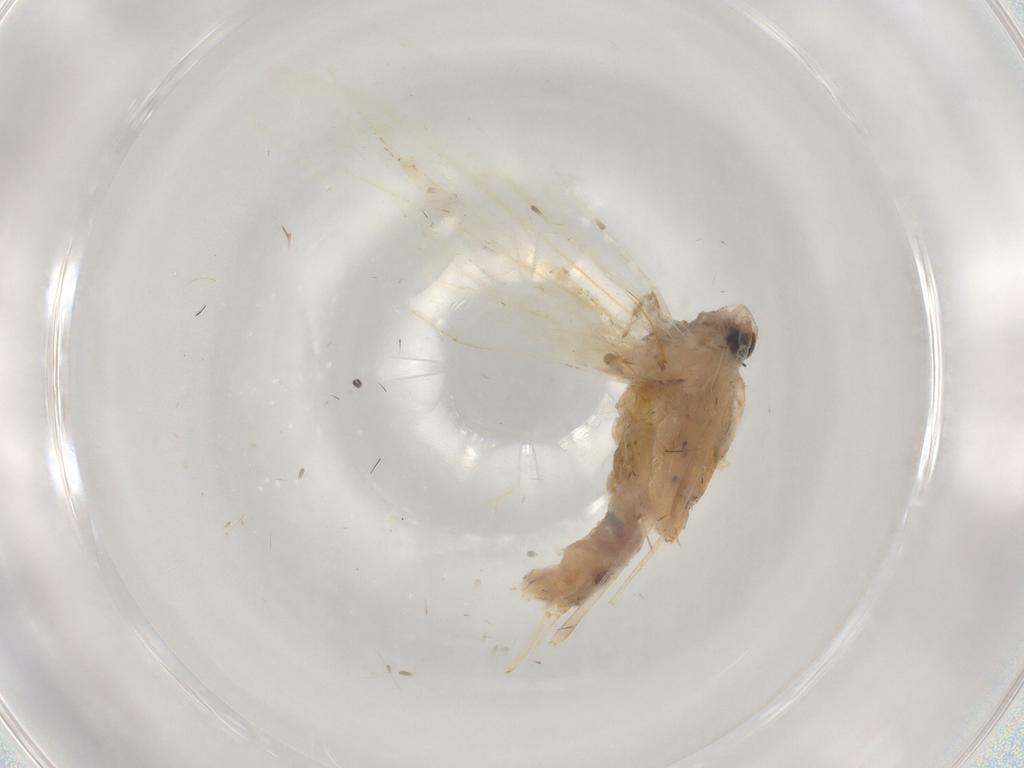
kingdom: Animalia
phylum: Arthropoda
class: Insecta
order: Lepidoptera
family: Xyloryctidae
